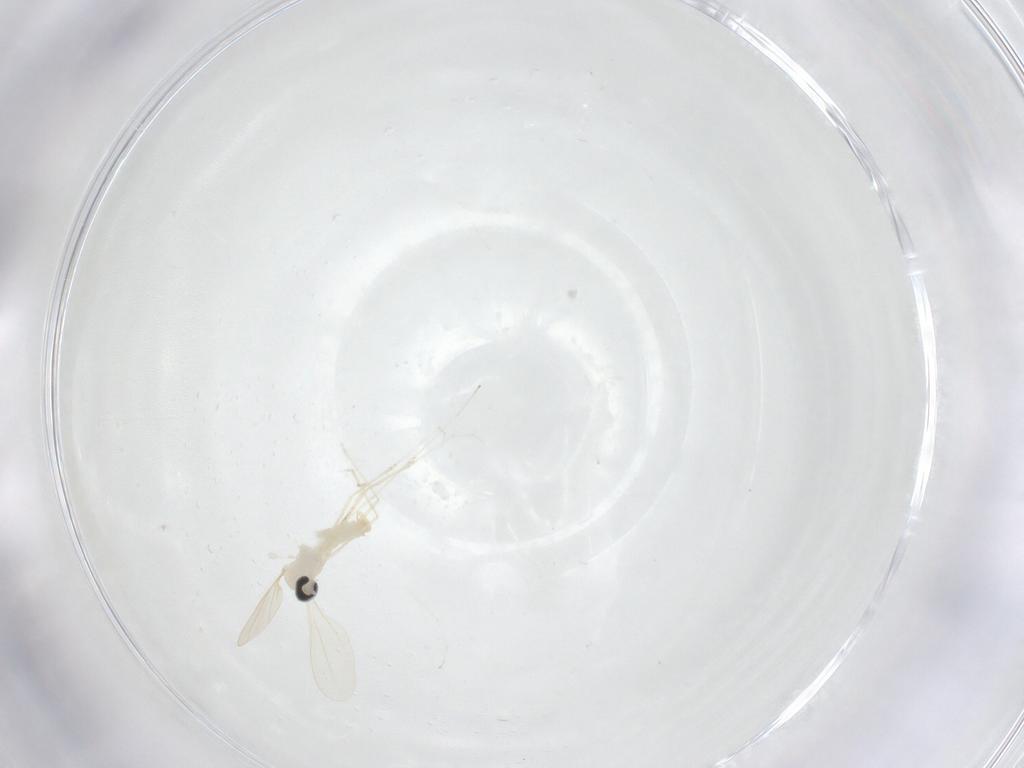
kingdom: Animalia
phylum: Arthropoda
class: Insecta
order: Diptera
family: Cecidomyiidae
